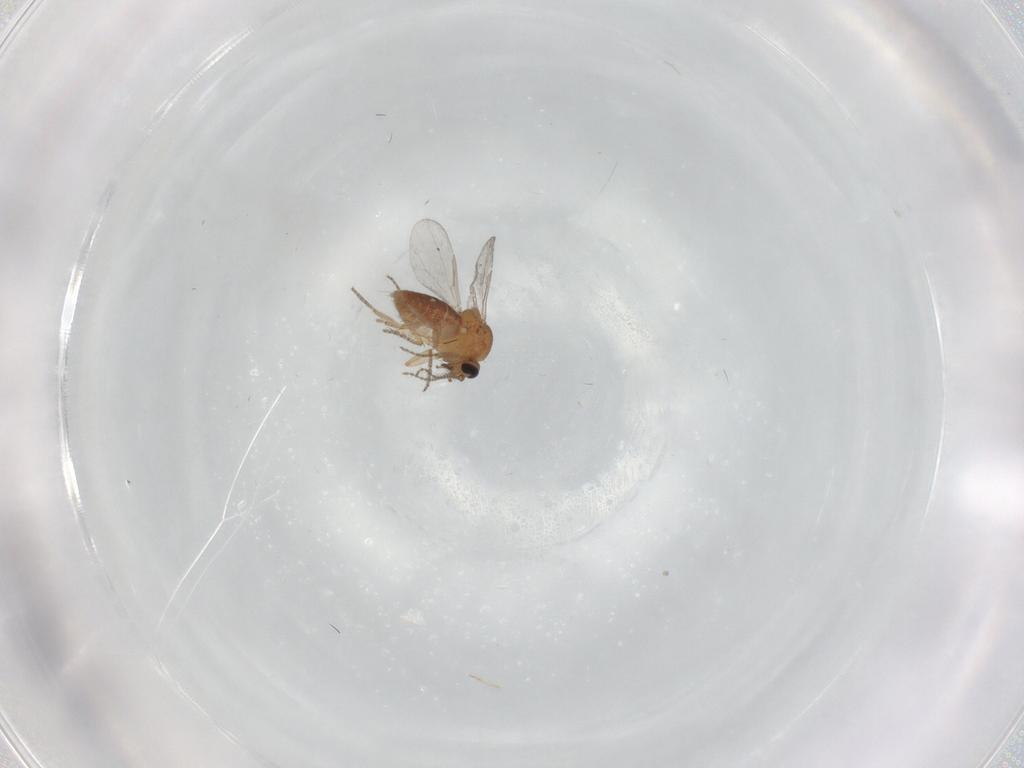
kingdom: Animalia
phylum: Arthropoda
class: Insecta
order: Diptera
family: Ceratopogonidae
